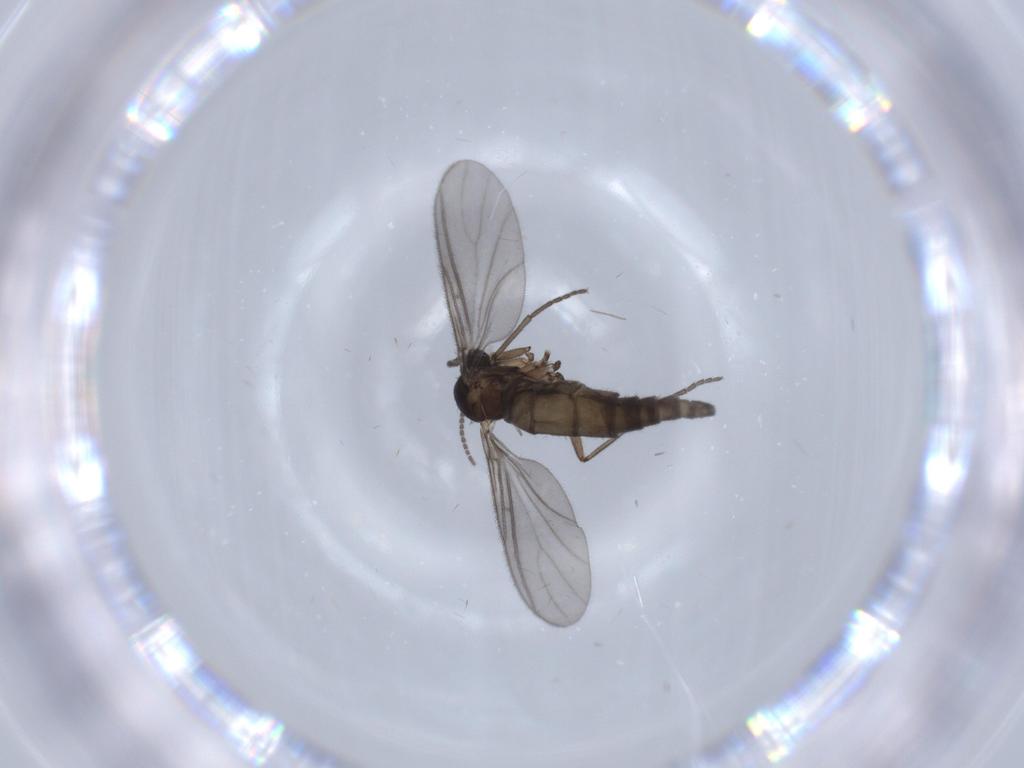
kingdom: Animalia
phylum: Arthropoda
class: Insecta
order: Diptera
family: Sciaridae
